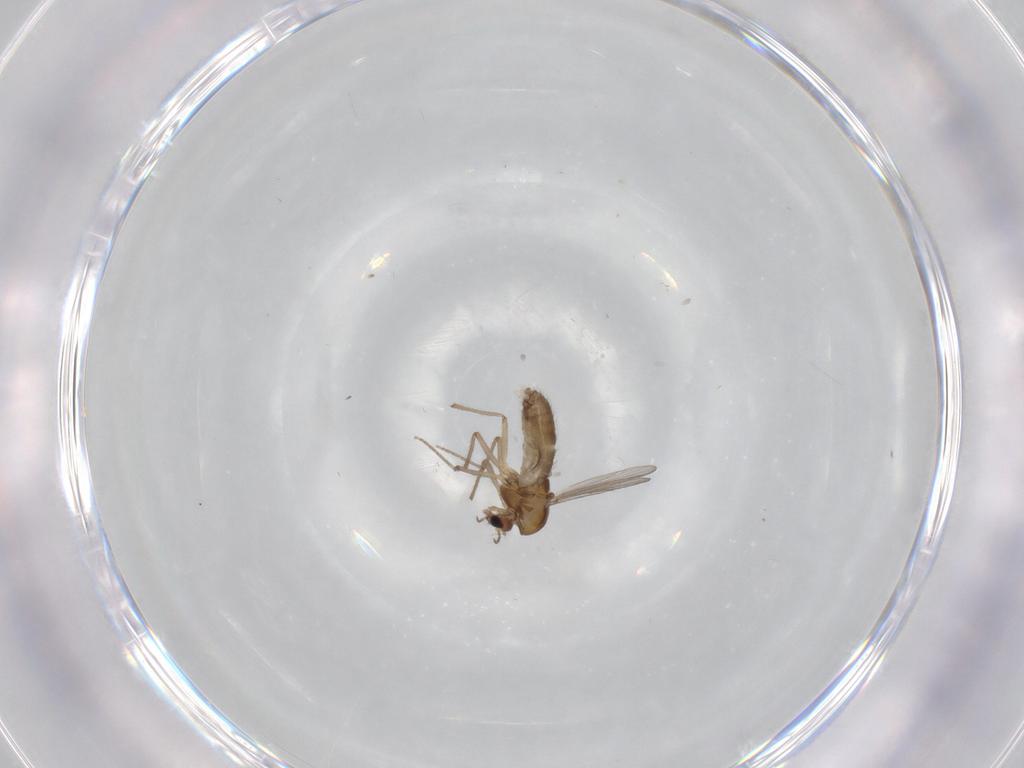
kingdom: Animalia
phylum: Arthropoda
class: Insecta
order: Diptera
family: Chironomidae
